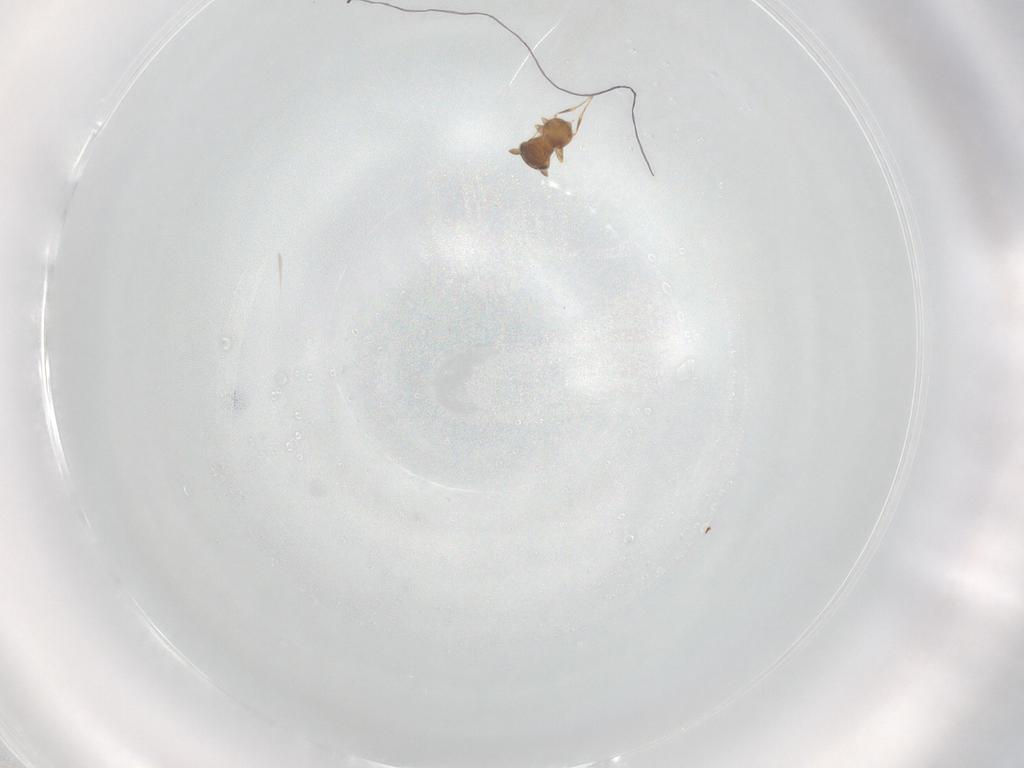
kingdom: Animalia
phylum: Arthropoda
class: Insecta
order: Hymenoptera
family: Scelionidae
